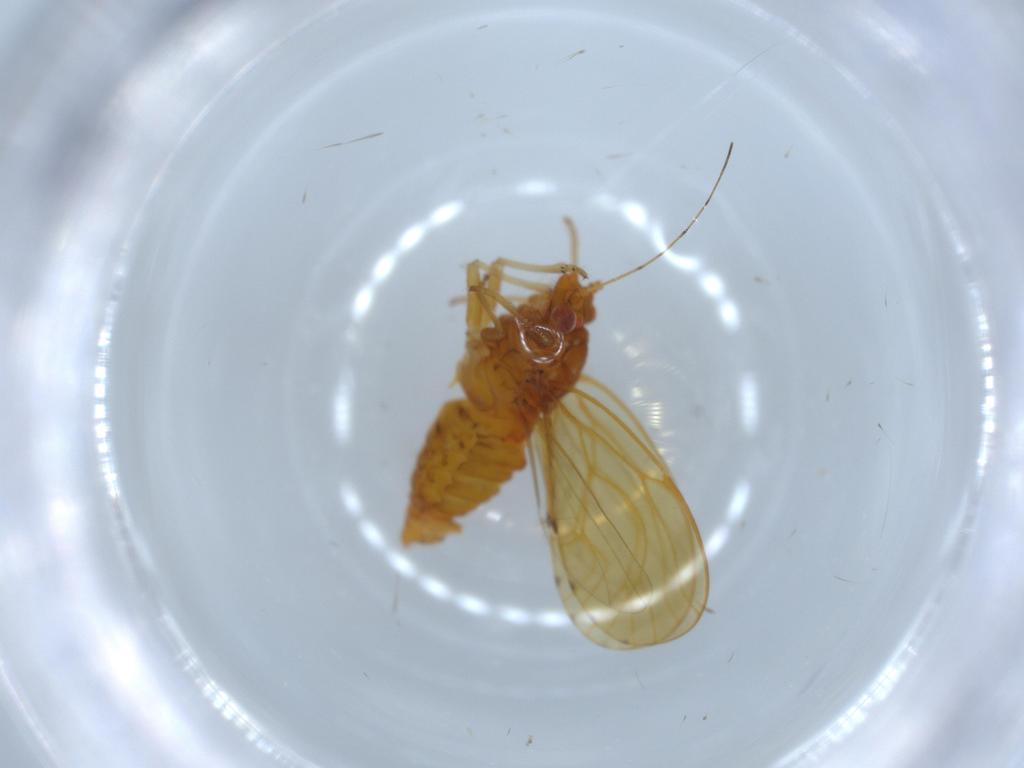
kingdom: Animalia
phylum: Arthropoda
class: Insecta
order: Hemiptera
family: Psylloidea_incertae_sedis
